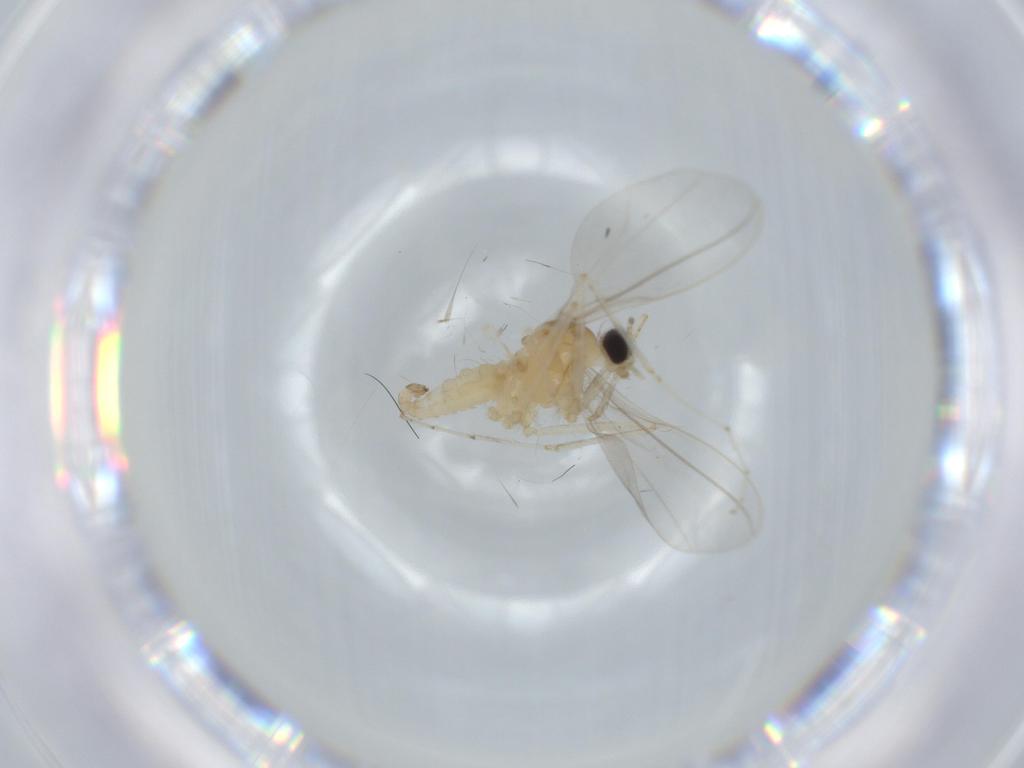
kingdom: Animalia
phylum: Arthropoda
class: Insecta
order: Diptera
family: Cecidomyiidae
